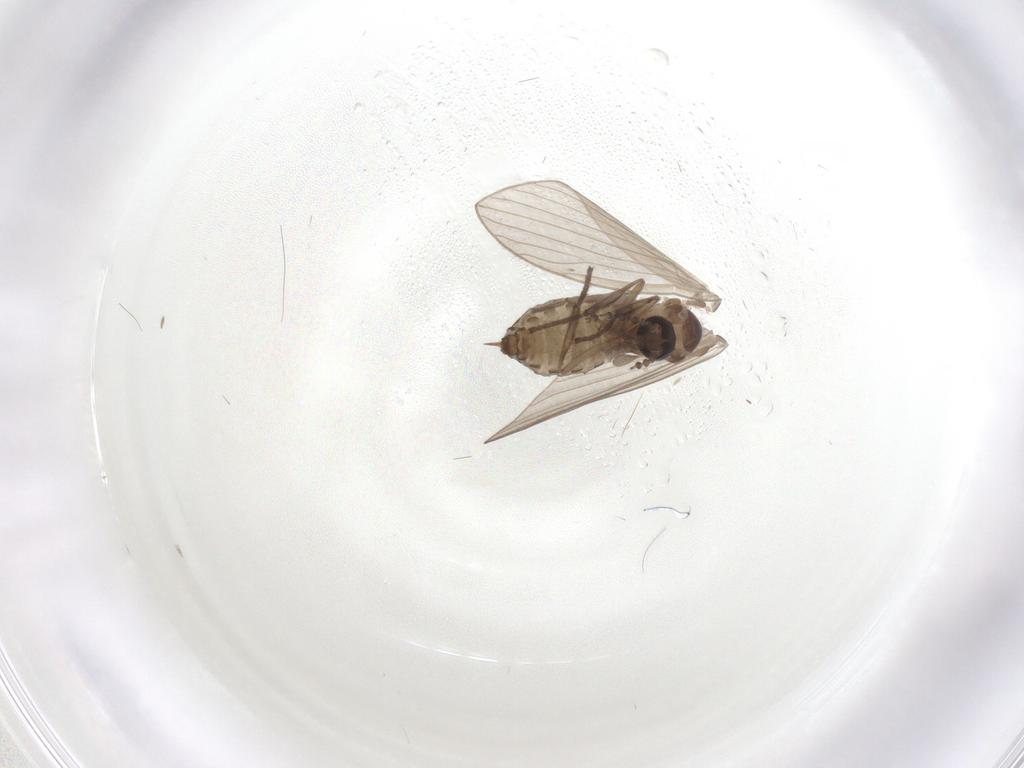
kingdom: Animalia
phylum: Arthropoda
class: Insecta
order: Diptera
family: Psychodidae
